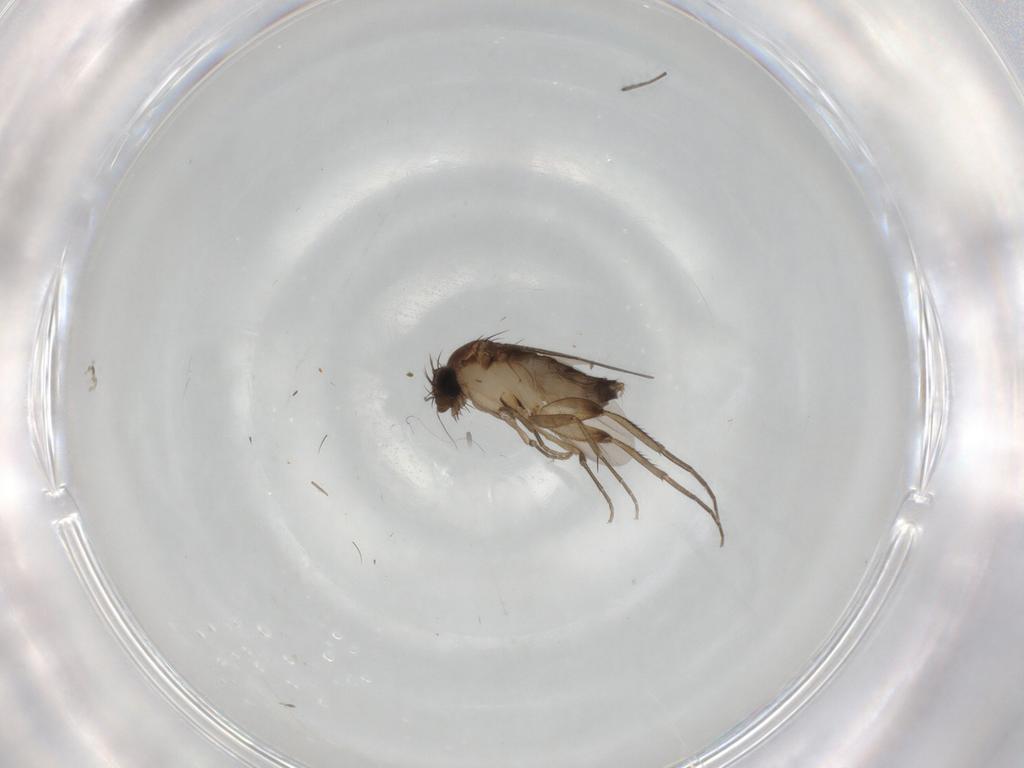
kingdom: Animalia
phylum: Arthropoda
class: Insecta
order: Diptera
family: Phoridae
